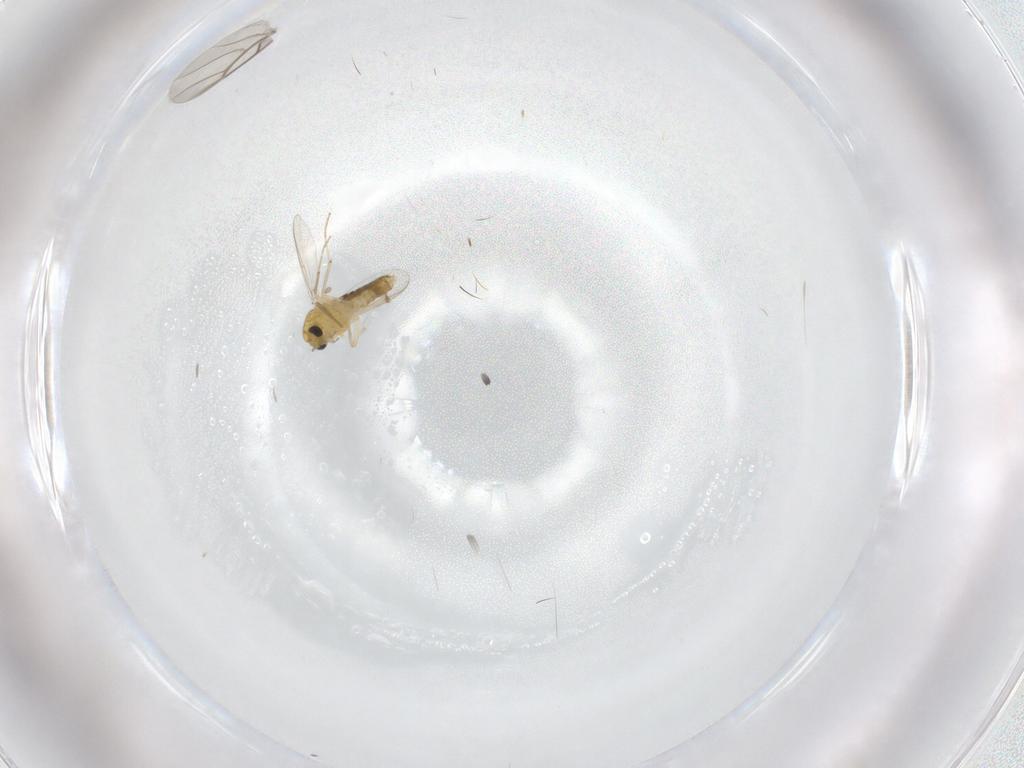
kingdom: Animalia
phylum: Arthropoda
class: Insecta
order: Diptera
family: Chironomidae
